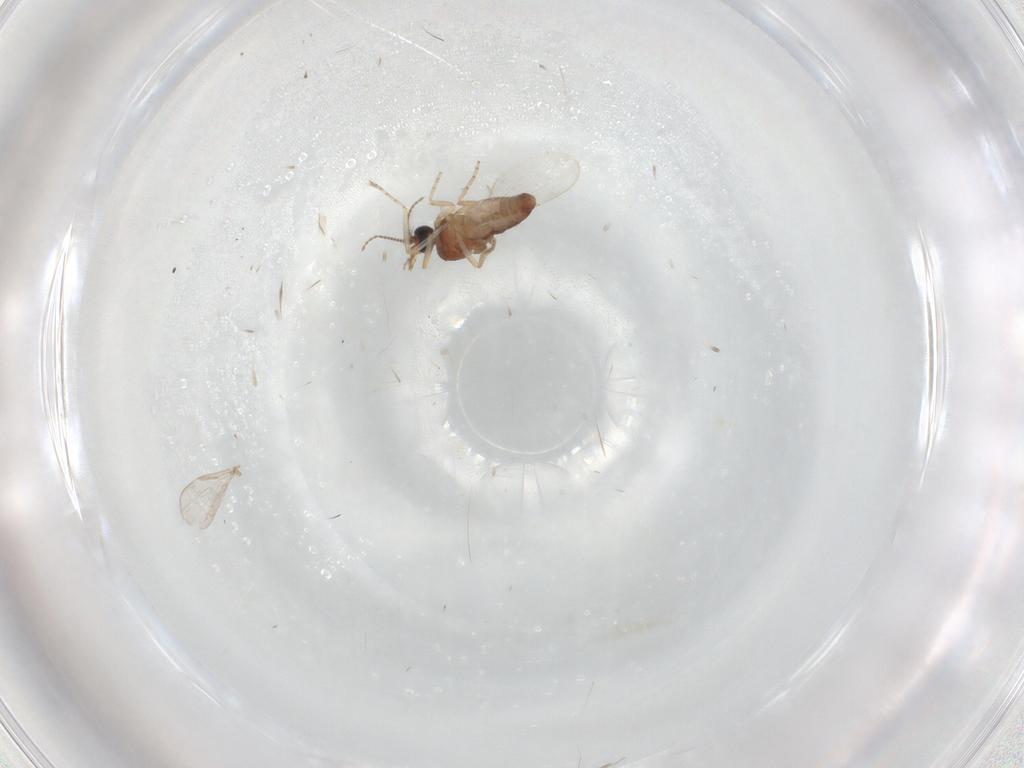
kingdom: Animalia
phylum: Arthropoda
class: Insecta
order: Diptera
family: Ceratopogonidae
